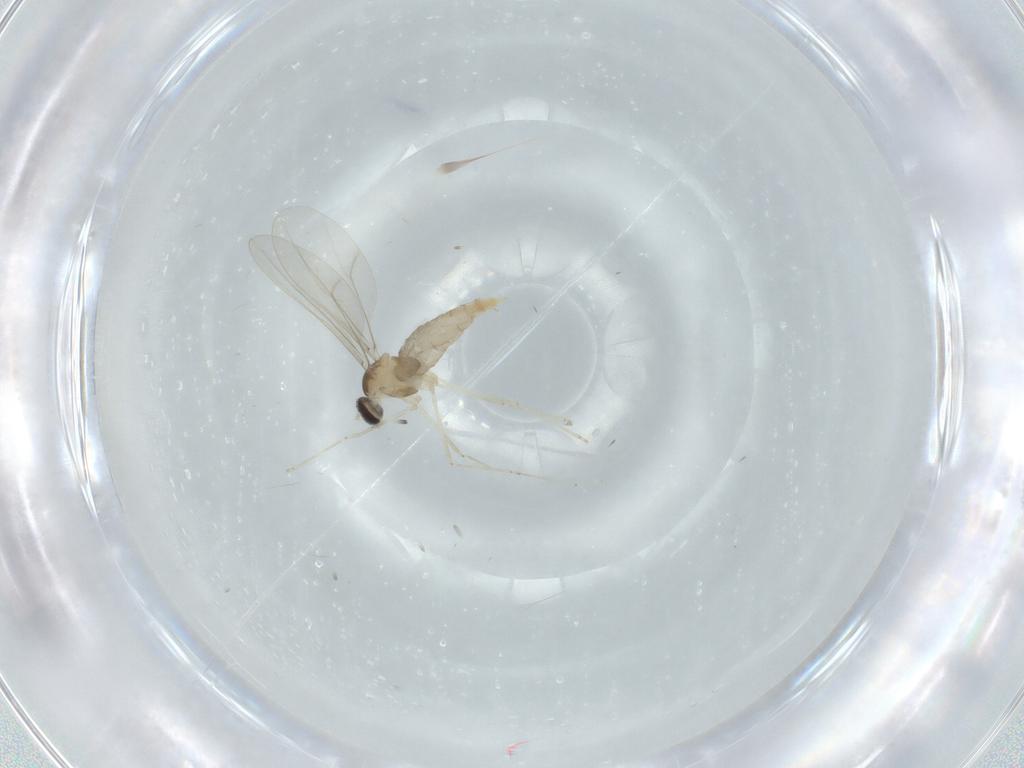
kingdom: Animalia
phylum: Arthropoda
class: Insecta
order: Diptera
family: Cecidomyiidae
